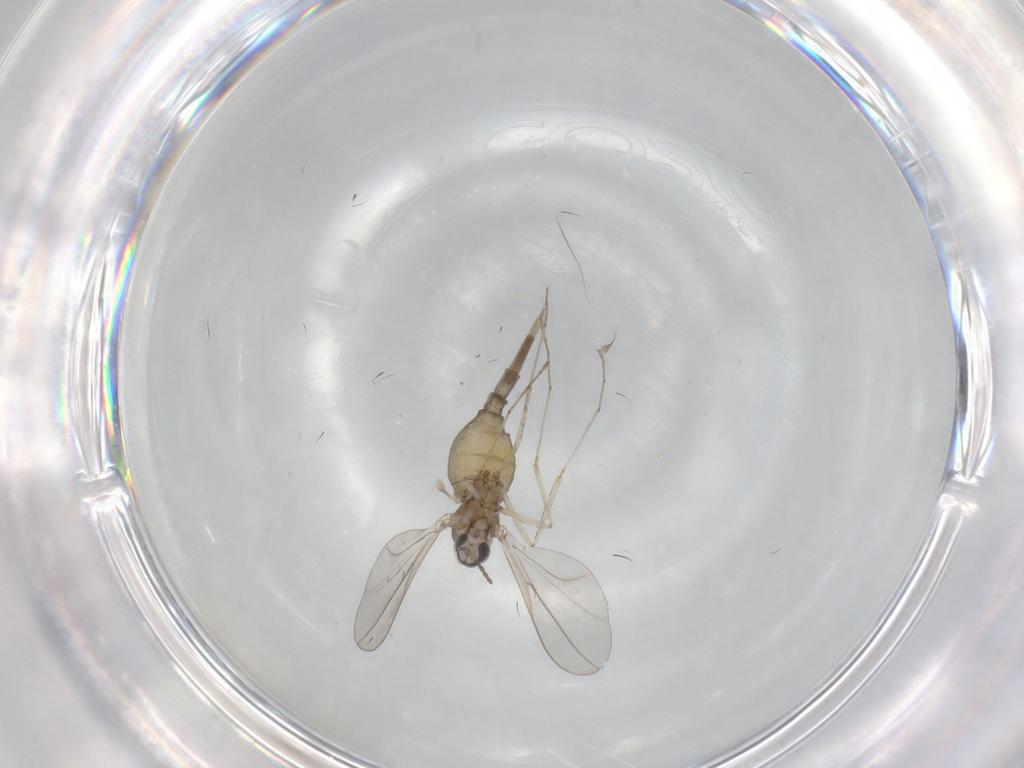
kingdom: Animalia
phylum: Arthropoda
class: Insecta
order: Diptera
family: Cecidomyiidae
